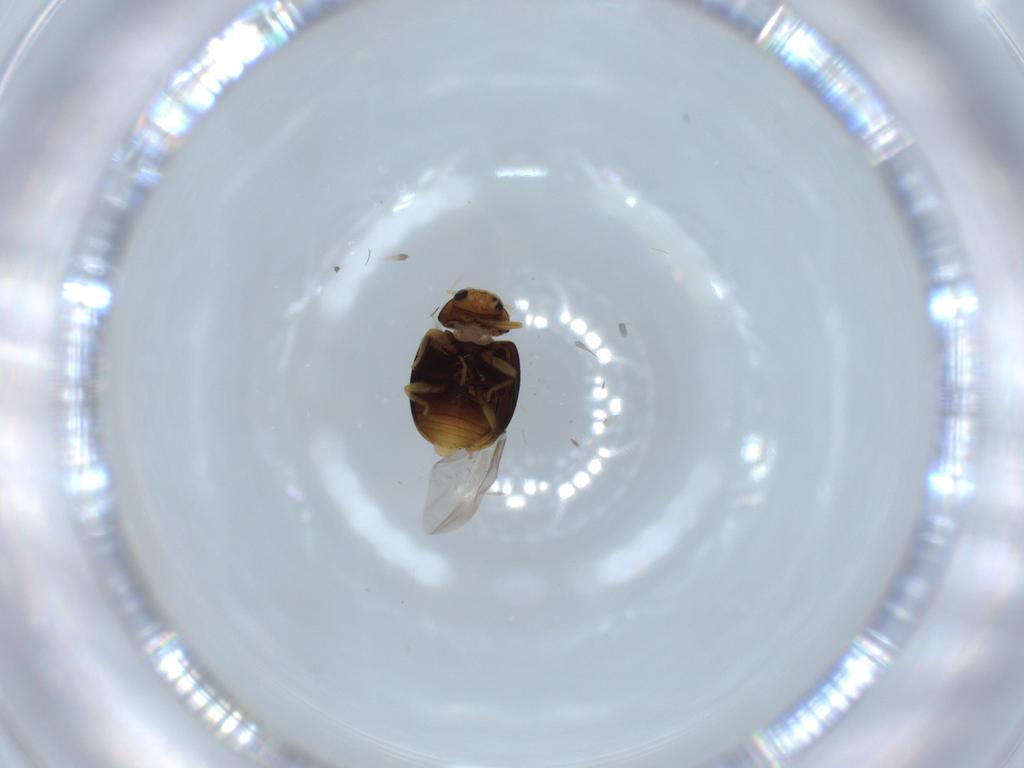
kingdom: Animalia
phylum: Arthropoda
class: Insecta
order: Coleoptera
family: Coccinellidae
